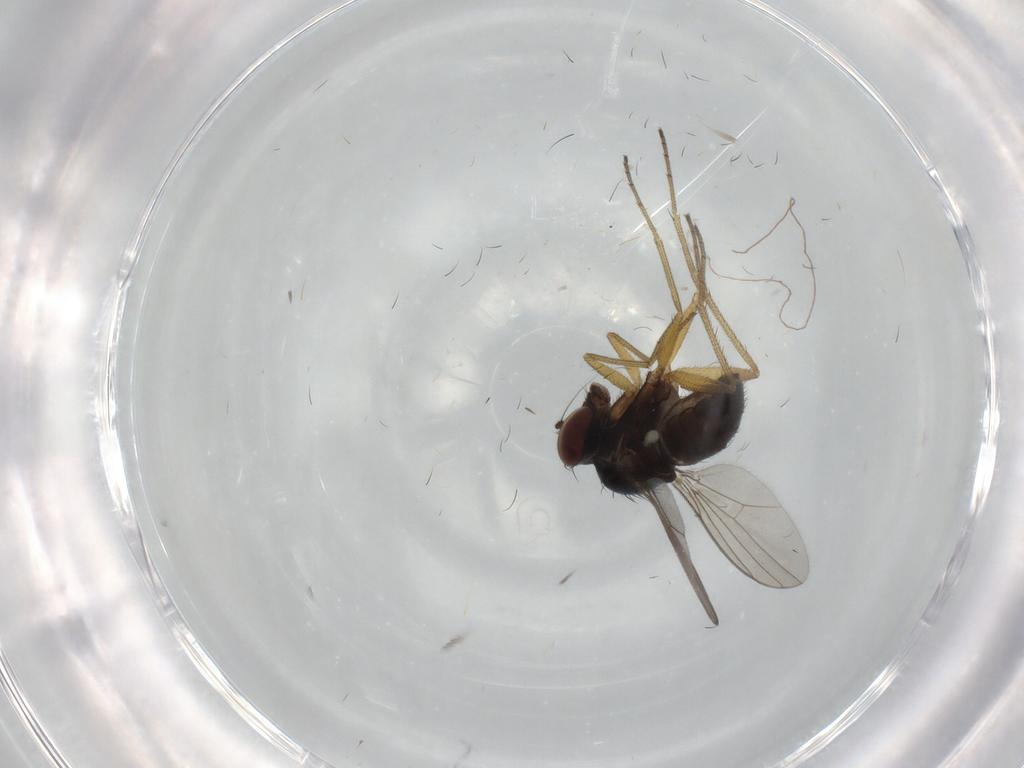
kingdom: Animalia
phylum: Arthropoda
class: Insecta
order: Diptera
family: Dolichopodidae
